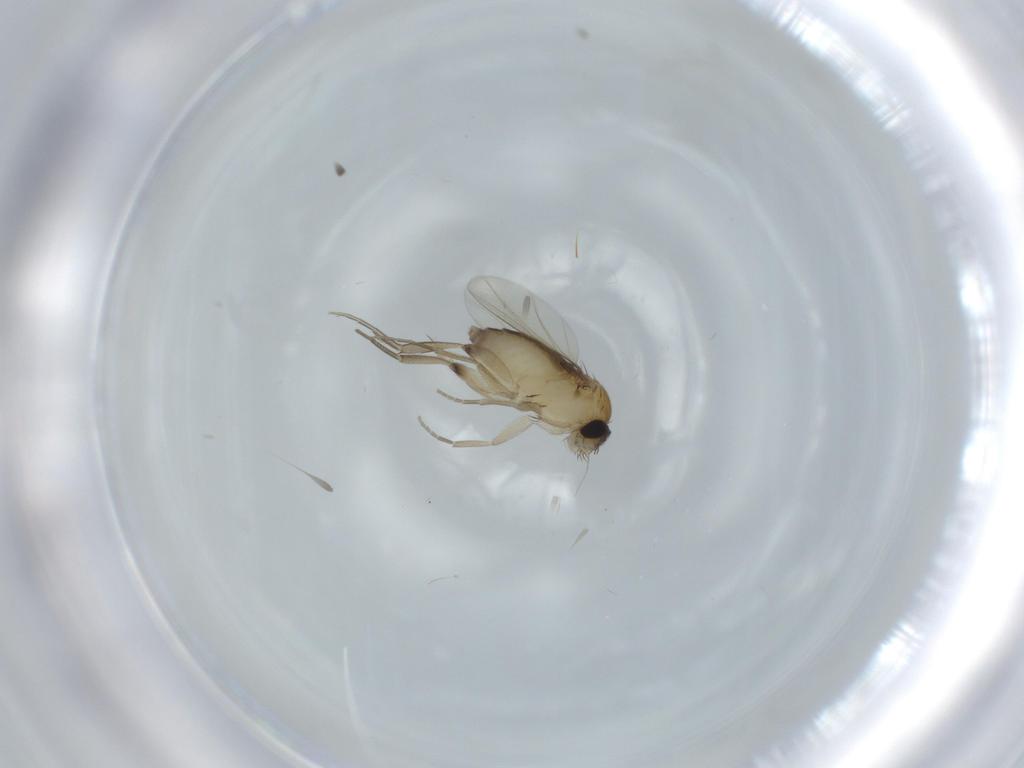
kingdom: Animalia
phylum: Arthropoda
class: Insecta
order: Diptera
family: Phoridae
